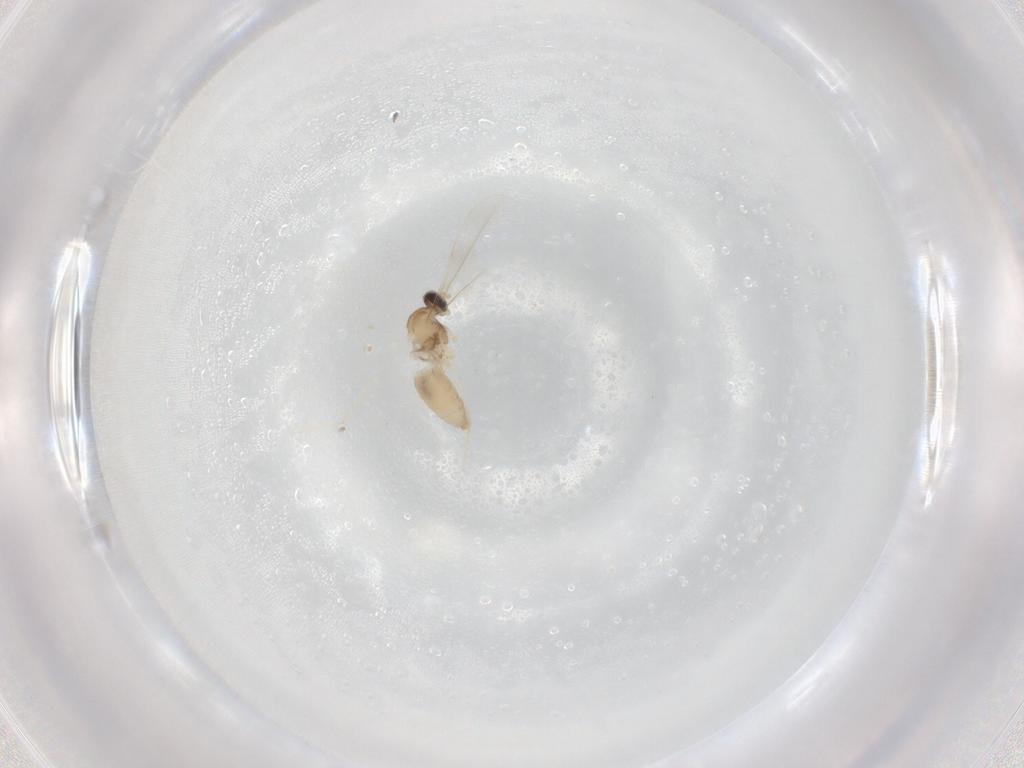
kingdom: Animalia
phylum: Arthropoda
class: Insecta
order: Diptera
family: Cecidomyiidae
